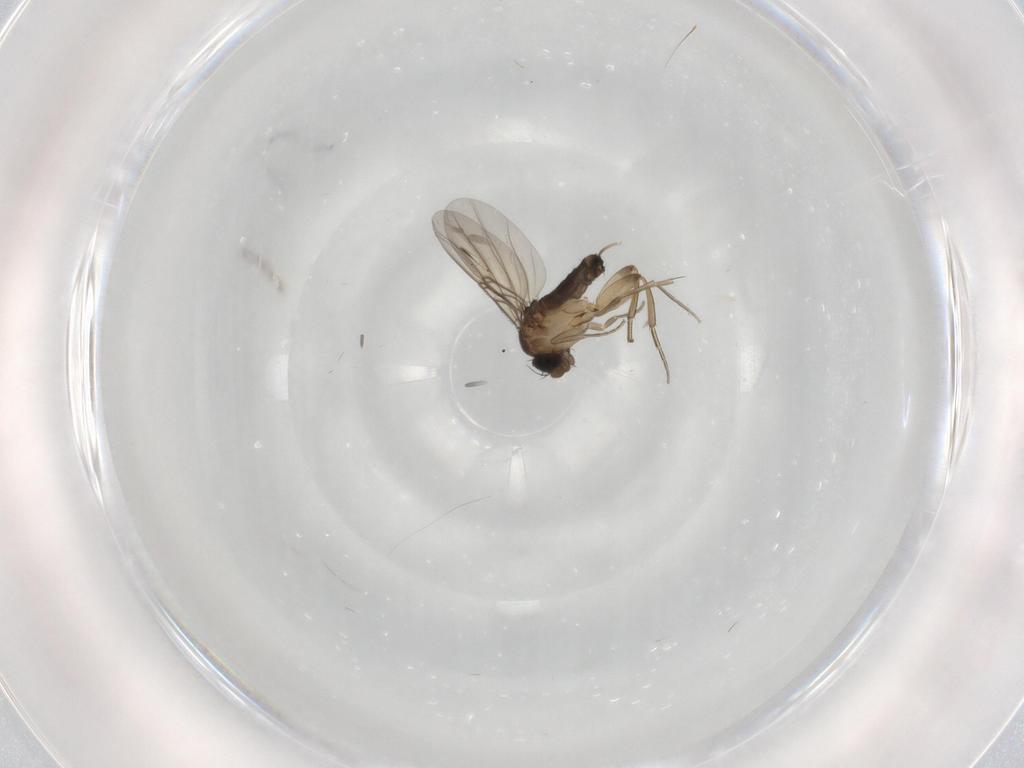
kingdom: Animalia
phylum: Arthropoda
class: Insecta
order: Diptera
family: Phoridae
